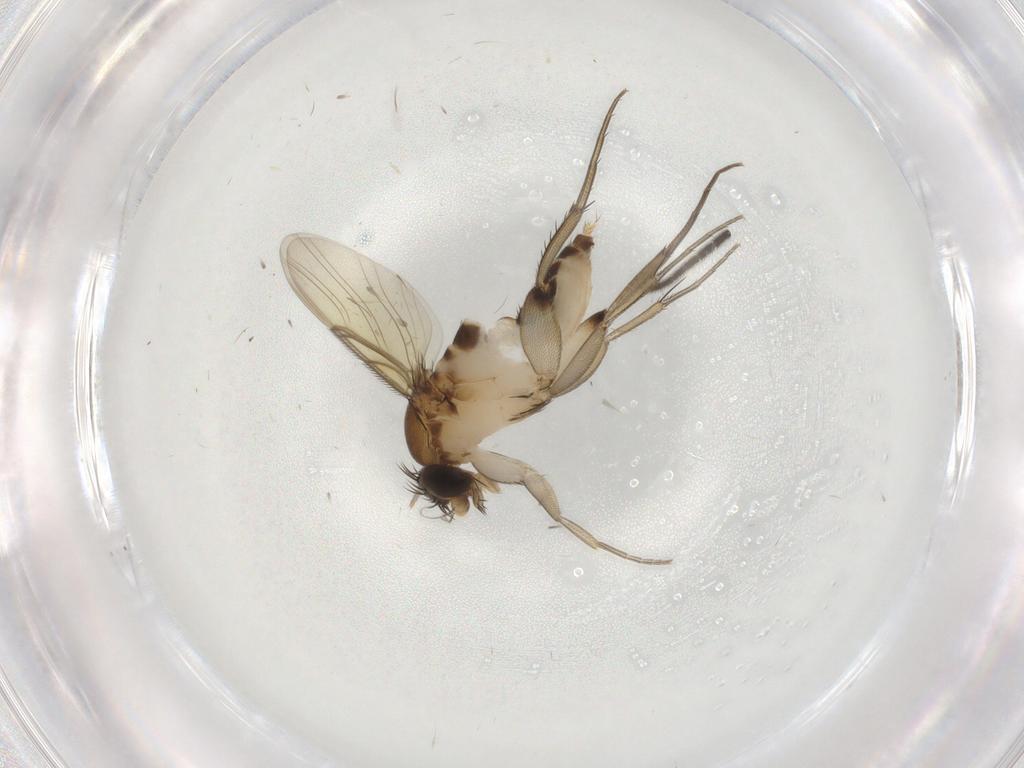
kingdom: Animalia
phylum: Arthropoda
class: Insecta
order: Diptera
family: Phoridae
